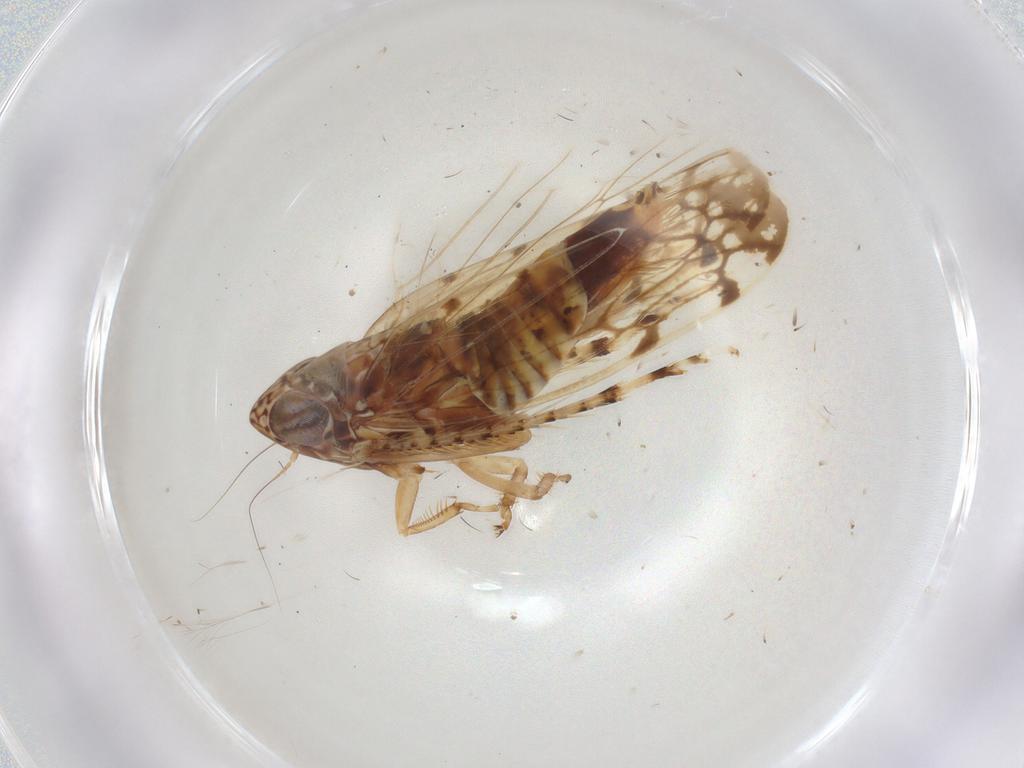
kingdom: Animalia
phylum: Arthropoda
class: Insecta
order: Hemiptera
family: Cicadellidae
